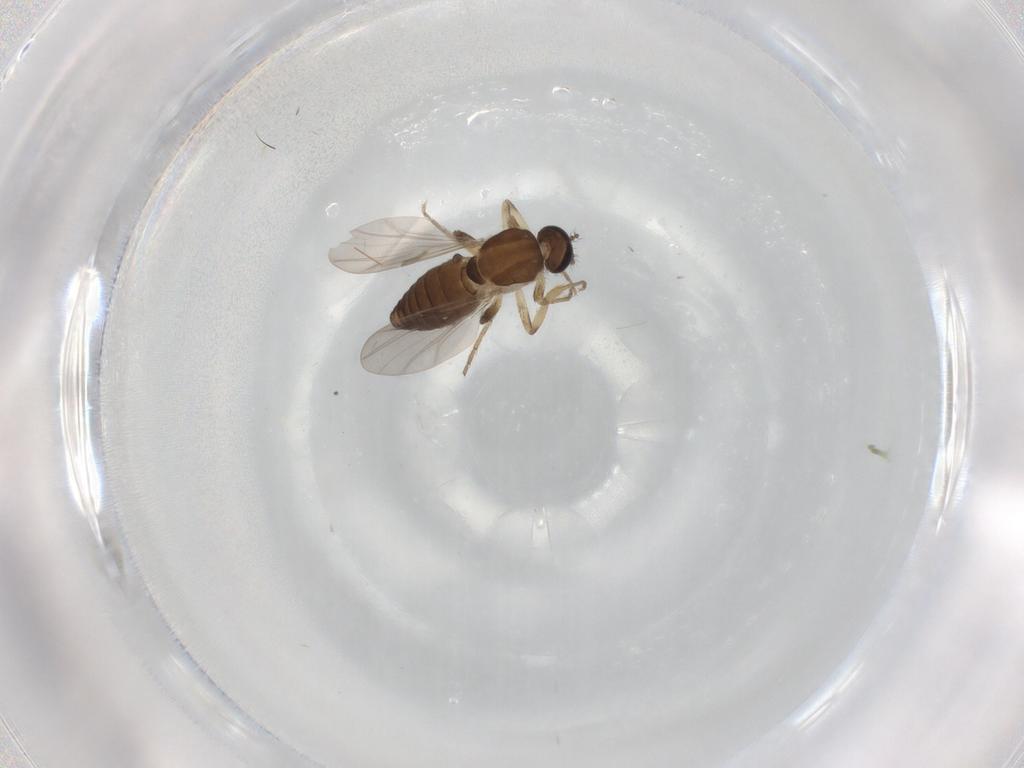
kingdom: Animalia
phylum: Arthropoda
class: Insecta
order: Diptera
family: Ceratopogonidae
